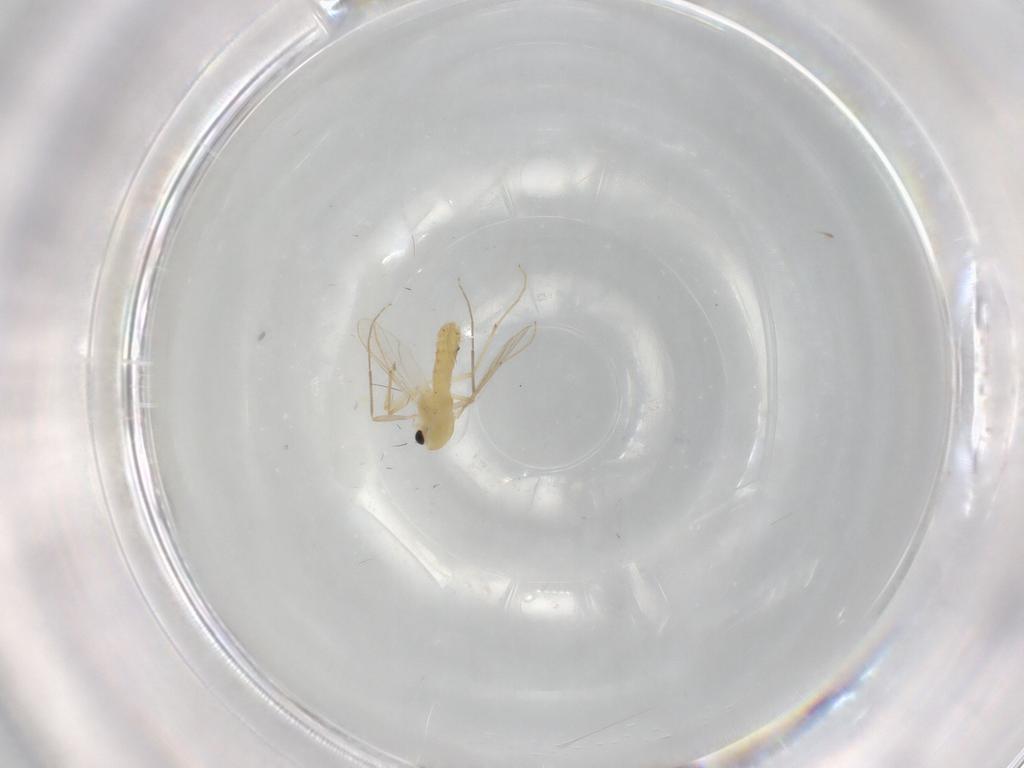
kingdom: Animalia
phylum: Arthropoda
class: Insecta
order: Diptera
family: Chironomidae
